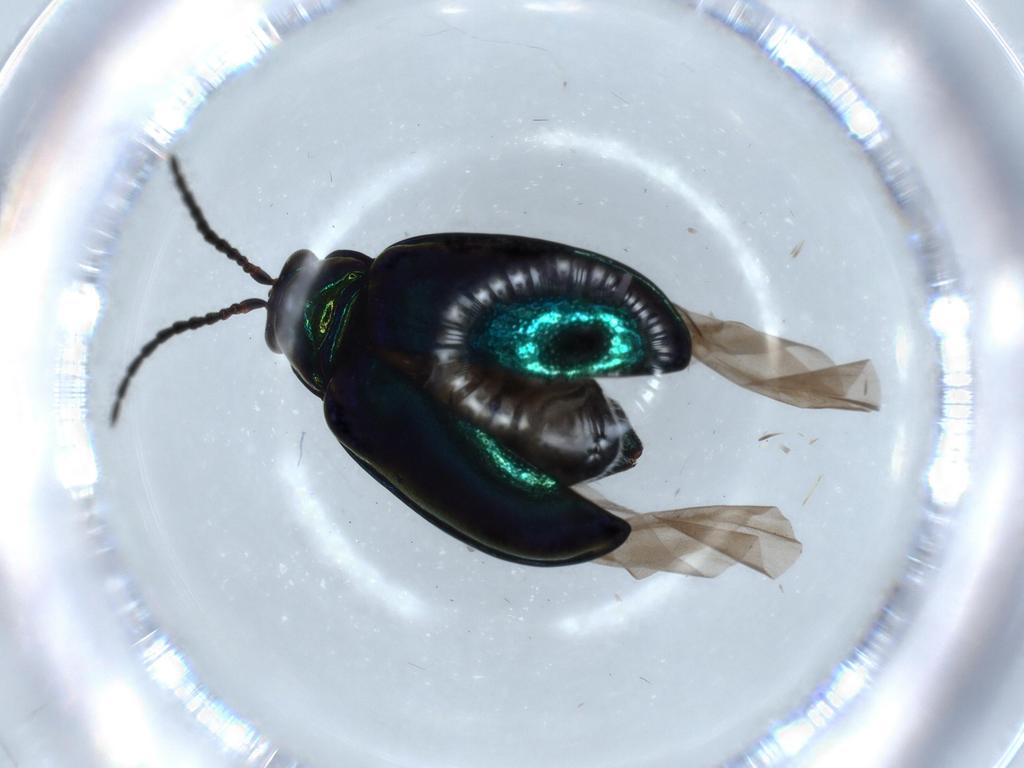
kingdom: Animalia
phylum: Arthropoda
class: Insecta
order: Coleoptera
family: Chrysomelidae
